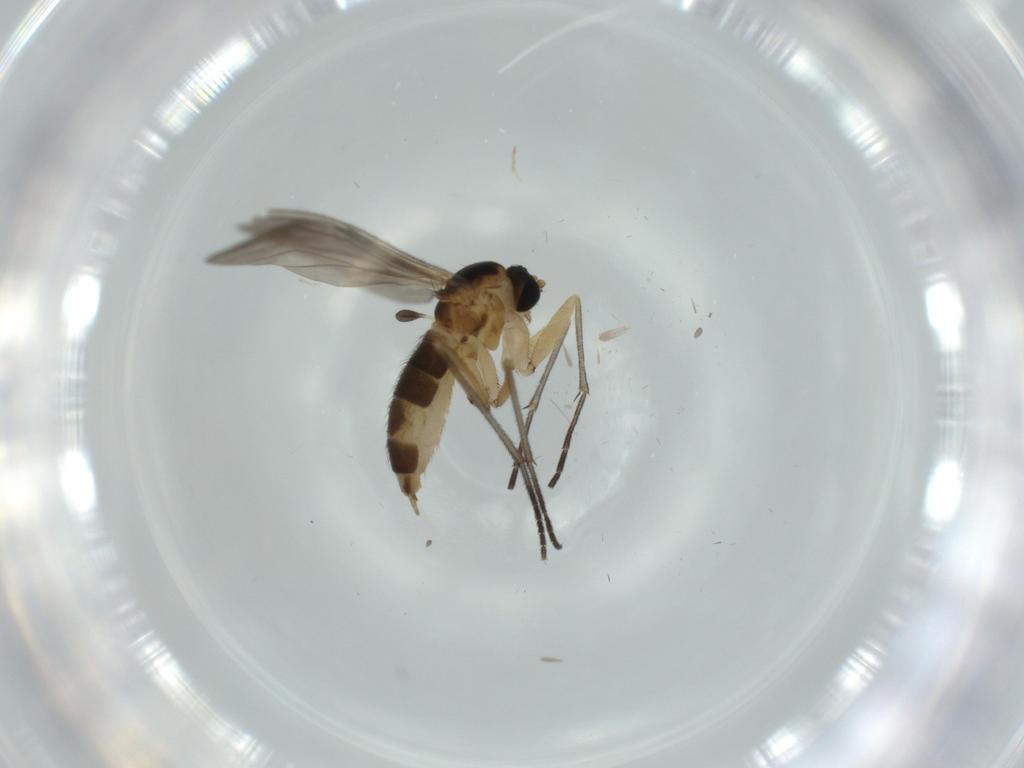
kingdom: Animalia
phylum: Arthropoda
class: Insecta
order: Diptera
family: Sciaridae
